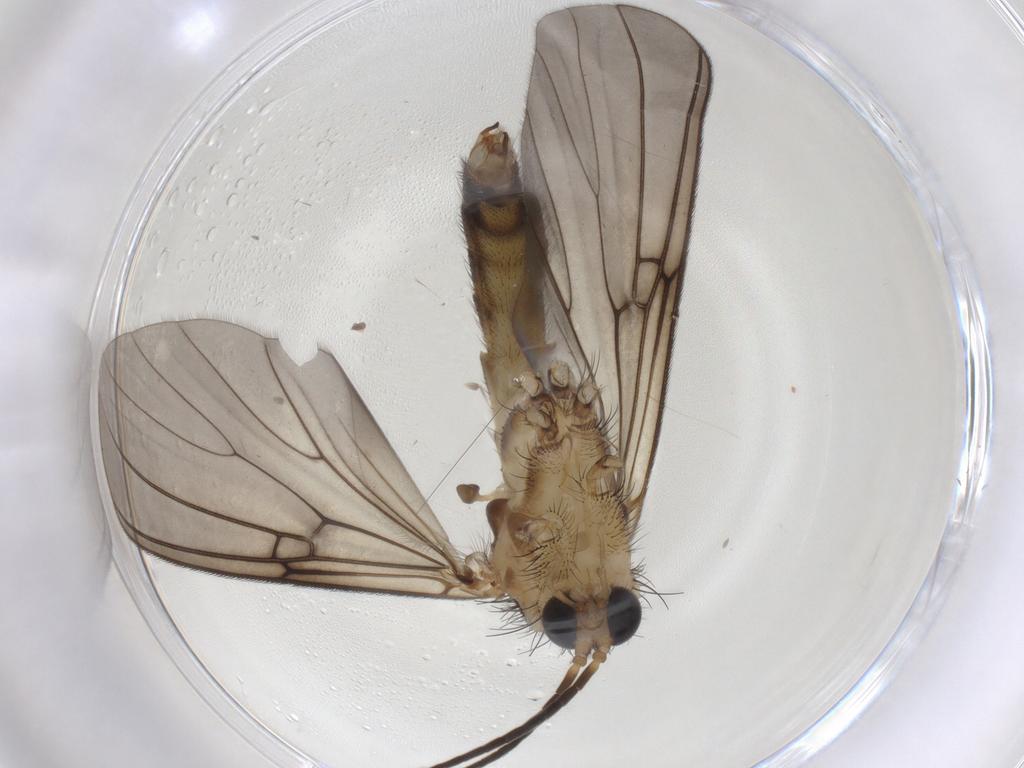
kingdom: Animalia
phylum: Arthropoda
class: Insecta
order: Diptera
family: Mycetophilidae
